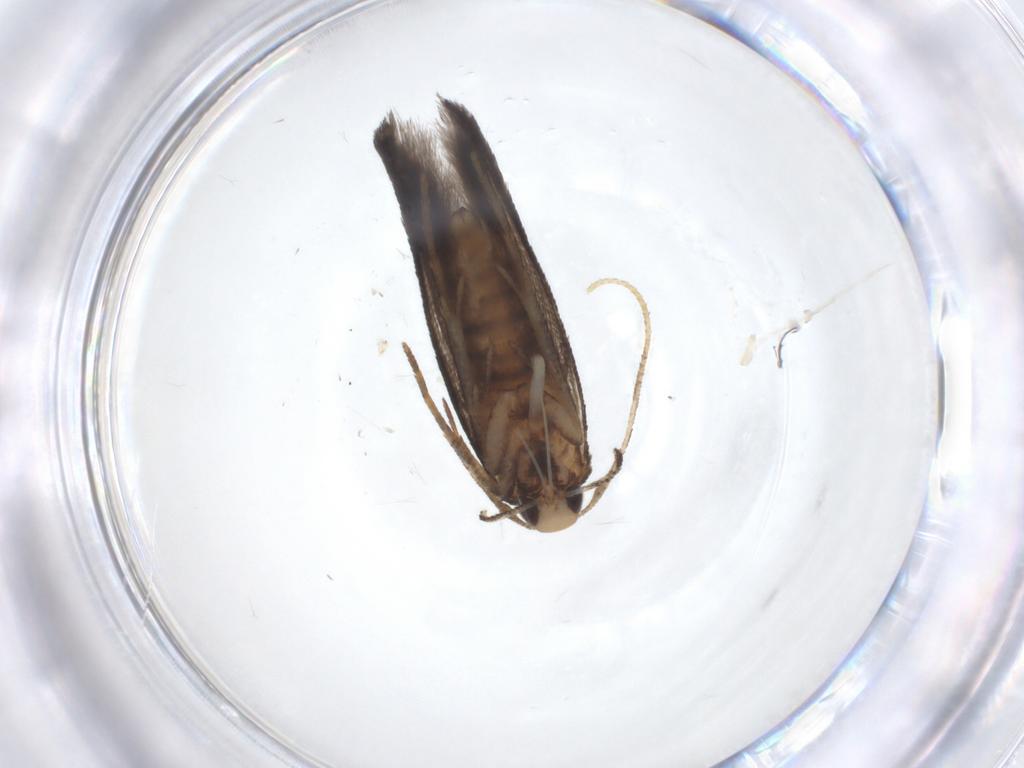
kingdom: Animalia
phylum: Arthropoda
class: Insecta
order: Lepidoptera
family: Cosmopterigidae
